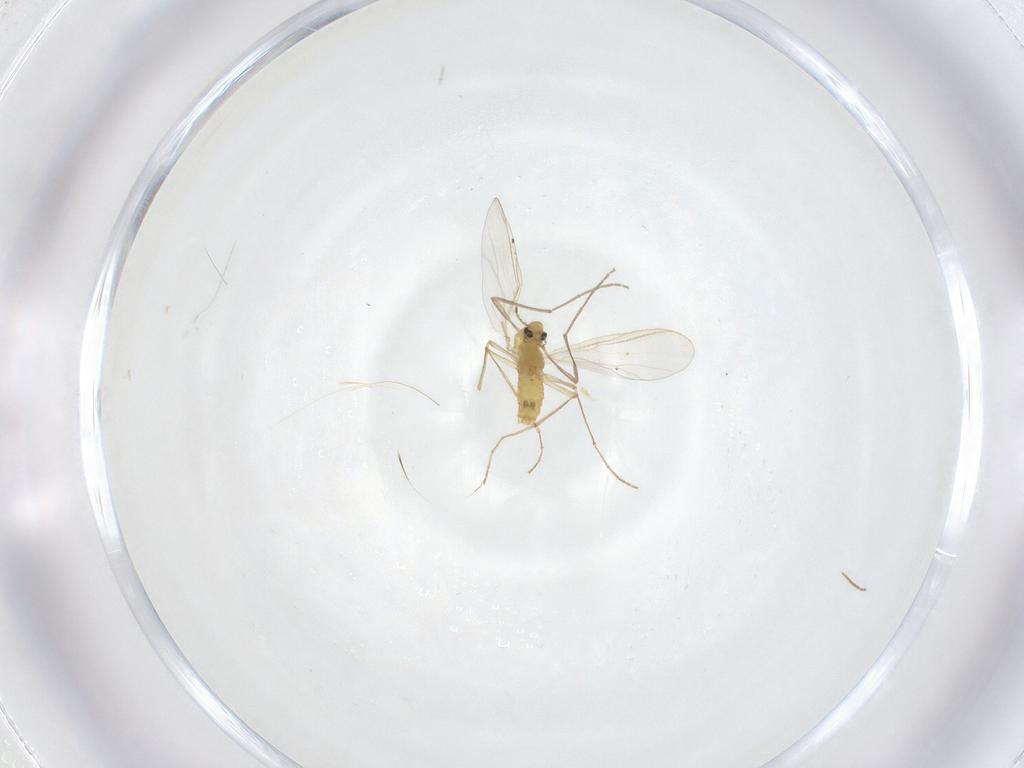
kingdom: Animalia
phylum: Arthropoda
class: Insecta
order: Diptera
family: Chironomidae
